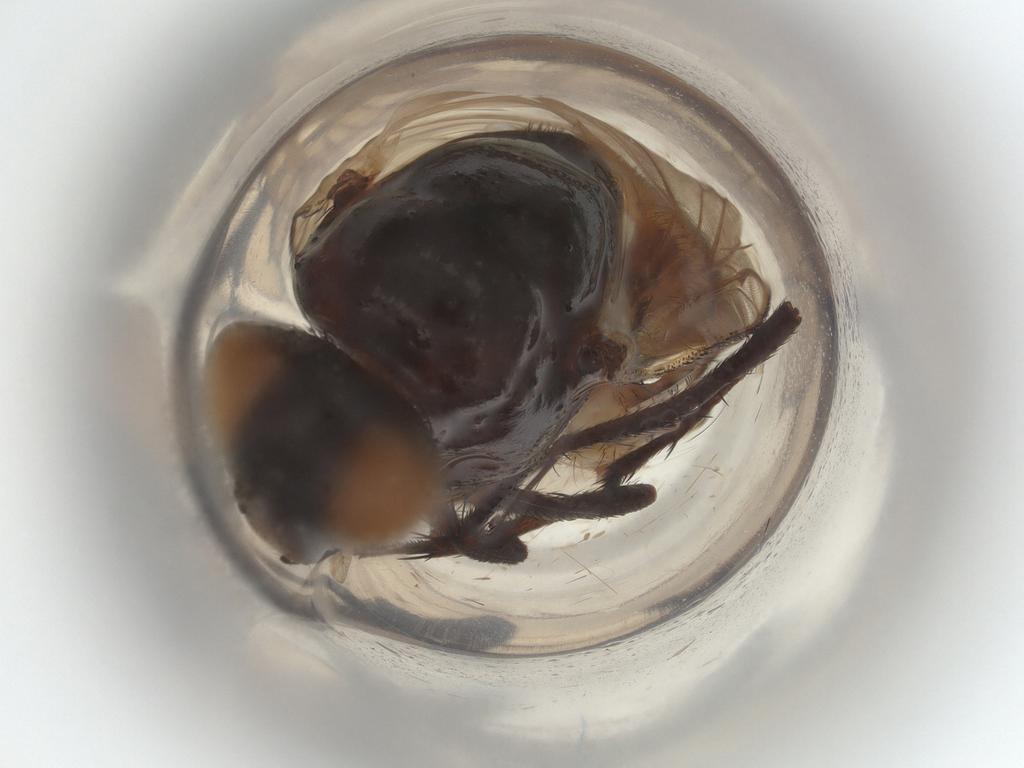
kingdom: Animalia
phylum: Arthropoda
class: Insecta
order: Diptera
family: Anthomyiidae
